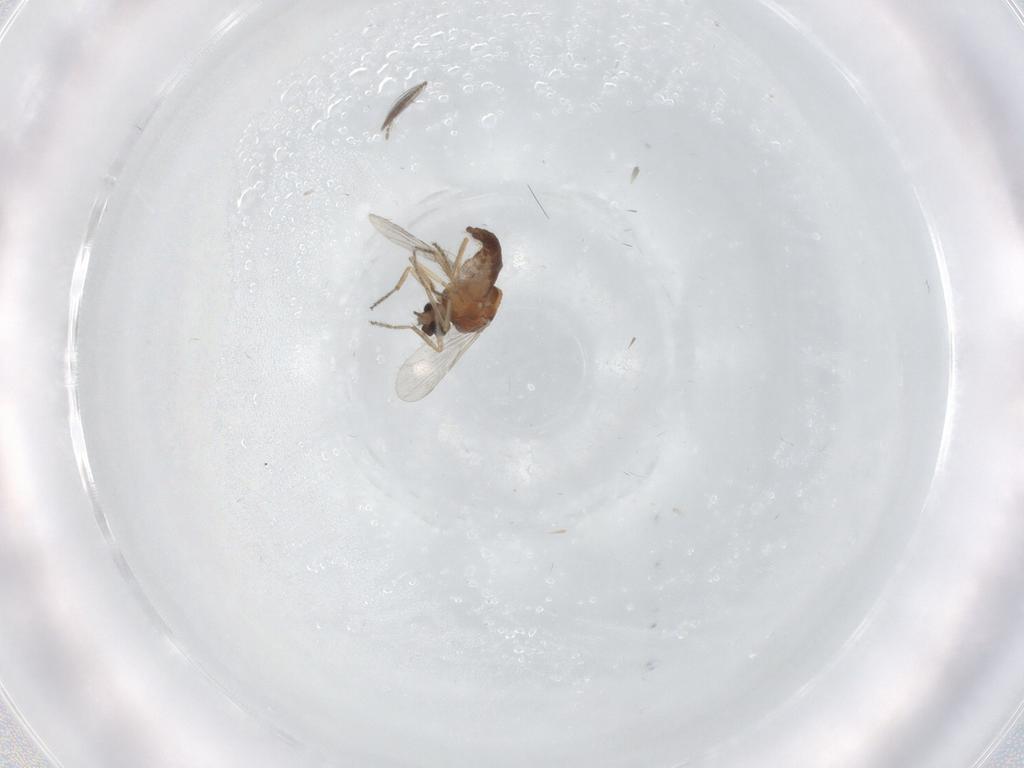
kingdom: Animalia
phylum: Arthropoda
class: Insecta
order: Diptera
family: Ceratopogonidae
